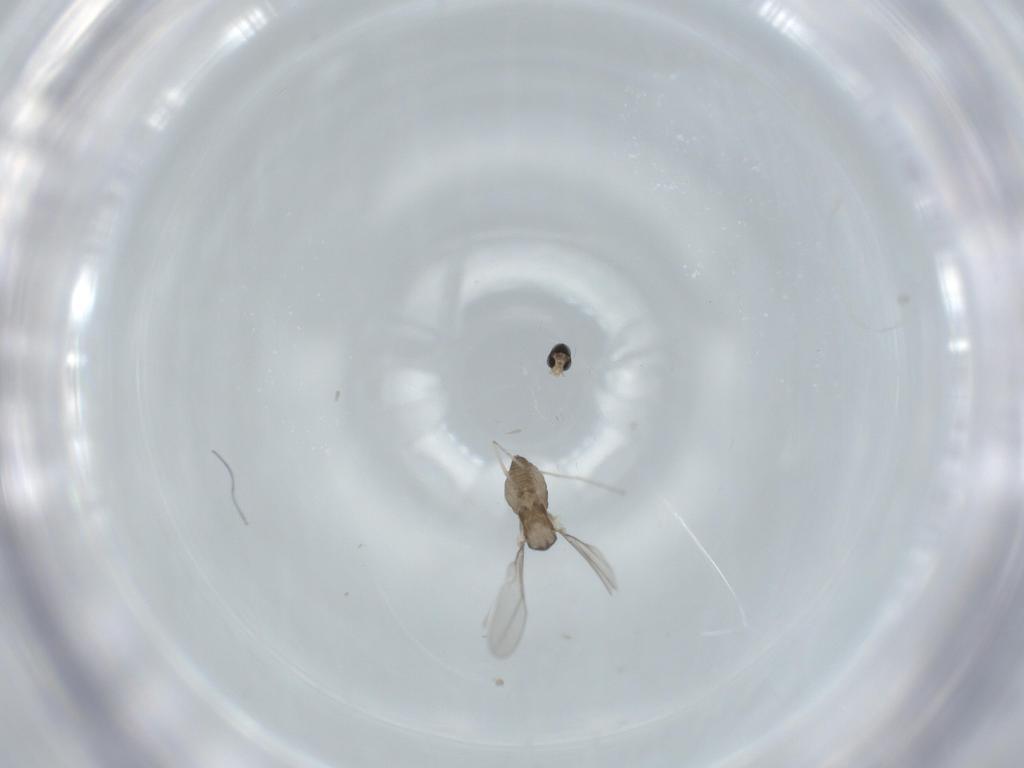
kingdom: Animalia
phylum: Arthropoda
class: Insecta
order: Diptera
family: Cecidomyiidae
